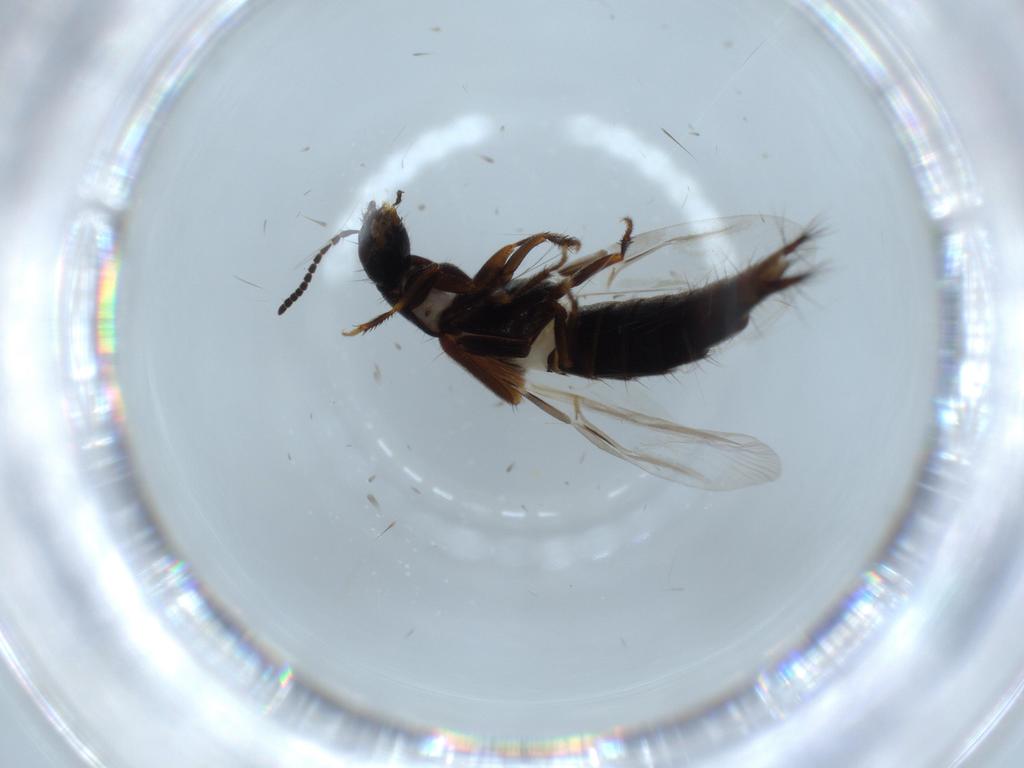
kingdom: Animalia
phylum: Arthropoda
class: Insecta
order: Coleoptera
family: Staphylinidae
